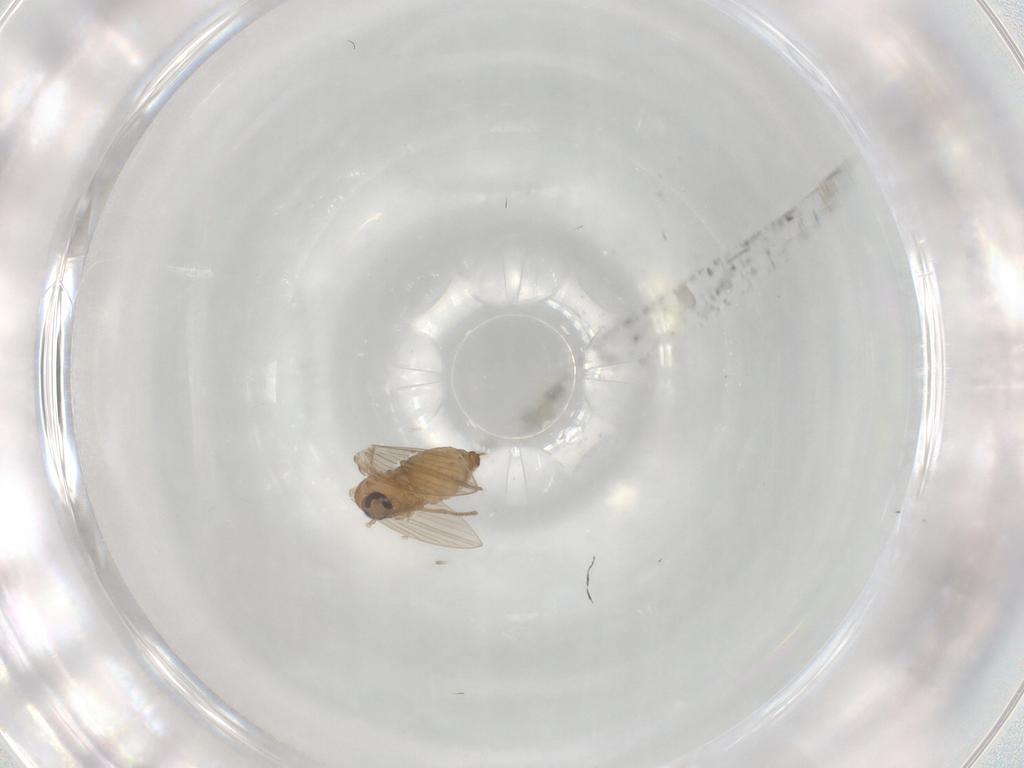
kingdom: Animalia
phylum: Arthropoda
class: Insecta
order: Diptera
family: Psychodidae
